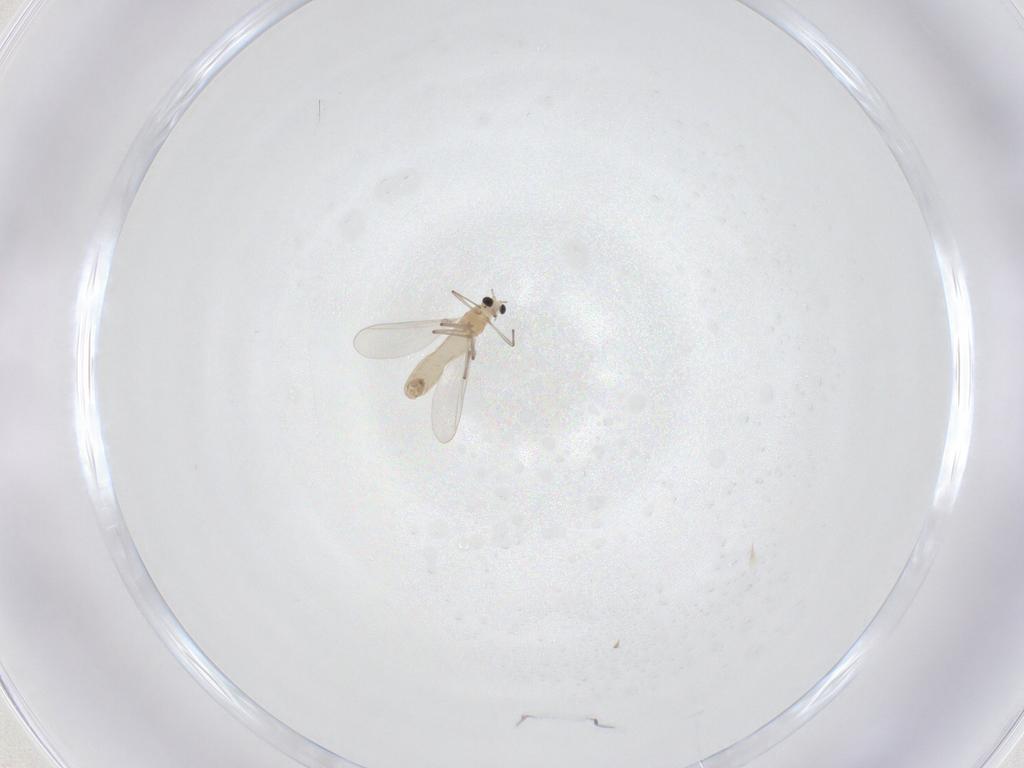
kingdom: Animalia
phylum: Arthropoda
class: Insecta
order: Diptera
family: Chironomidae
